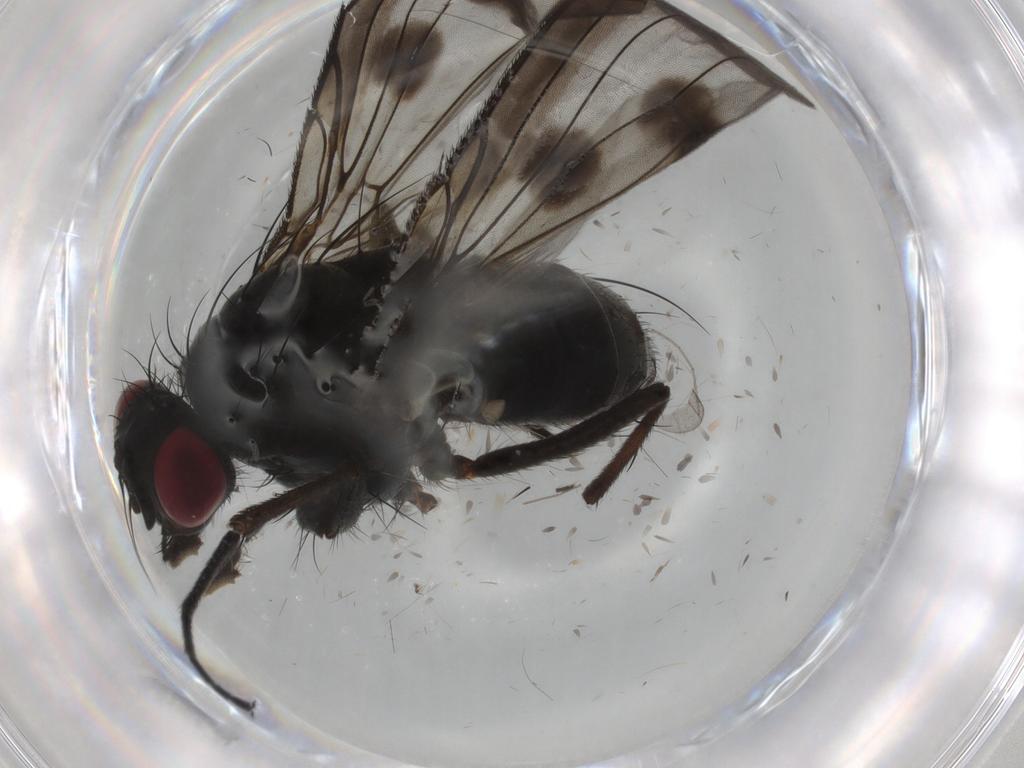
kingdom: Animalia
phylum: Arthropoda
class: Insecta
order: Diptera
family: Muscidae
